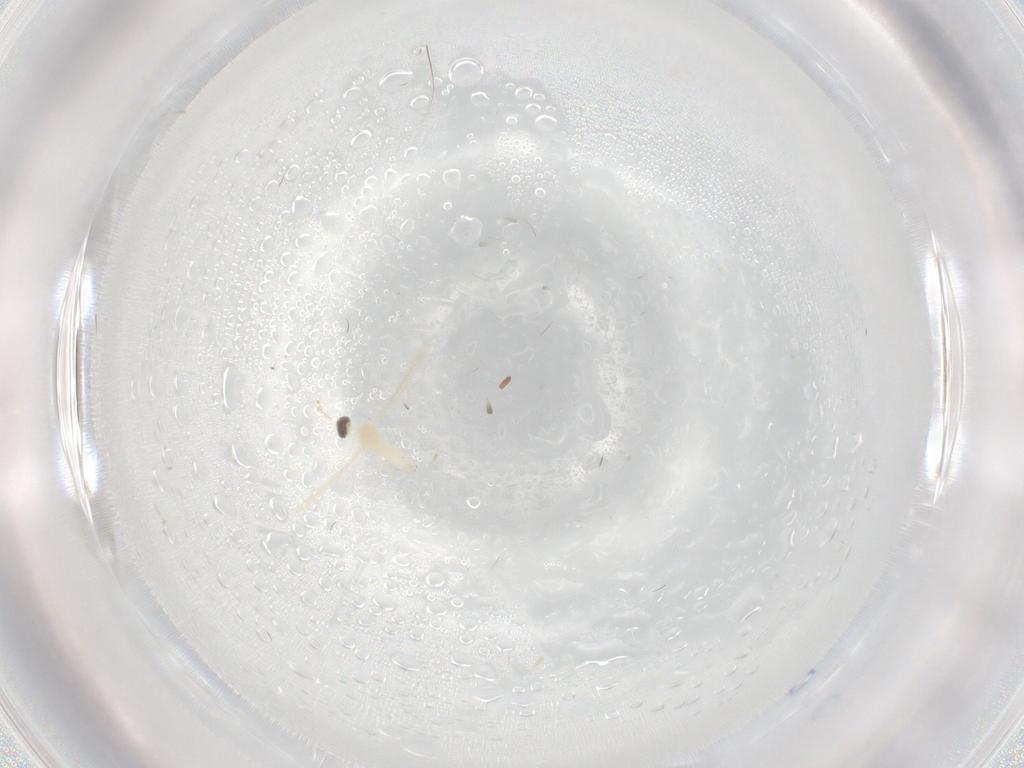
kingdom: Animalia
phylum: Arthropoda
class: Insecta
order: Diptera
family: Cecidomyiidae
